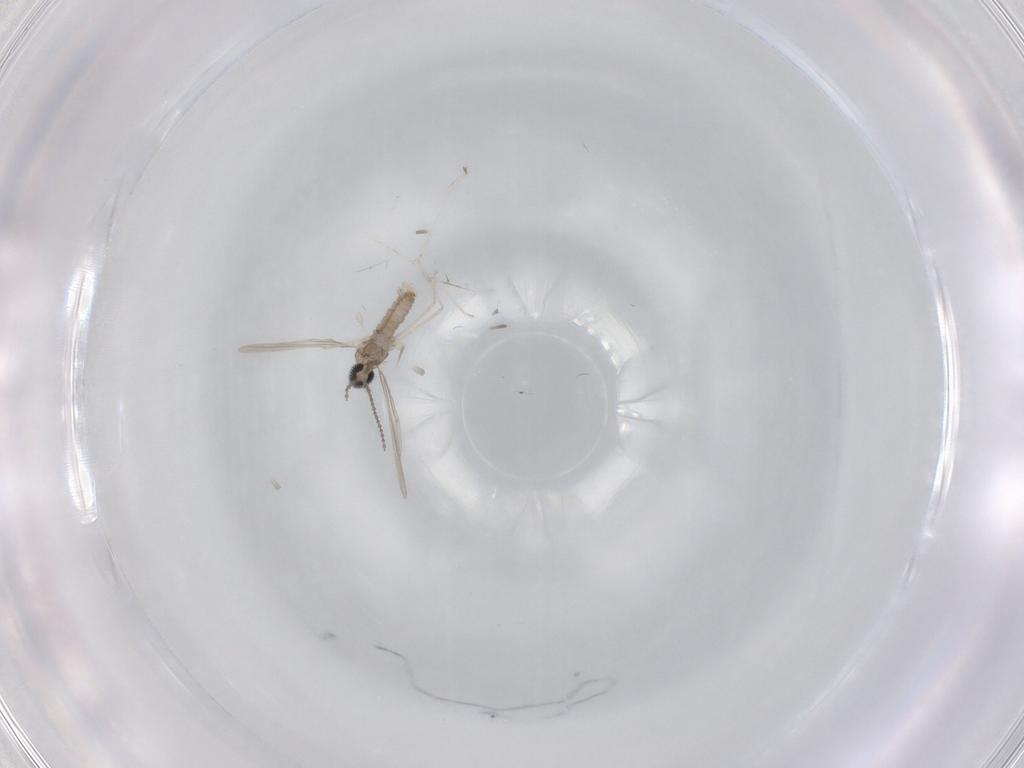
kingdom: Animalia
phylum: Arthropoda
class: Insecta
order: Diptera
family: Cecidomyiidae
